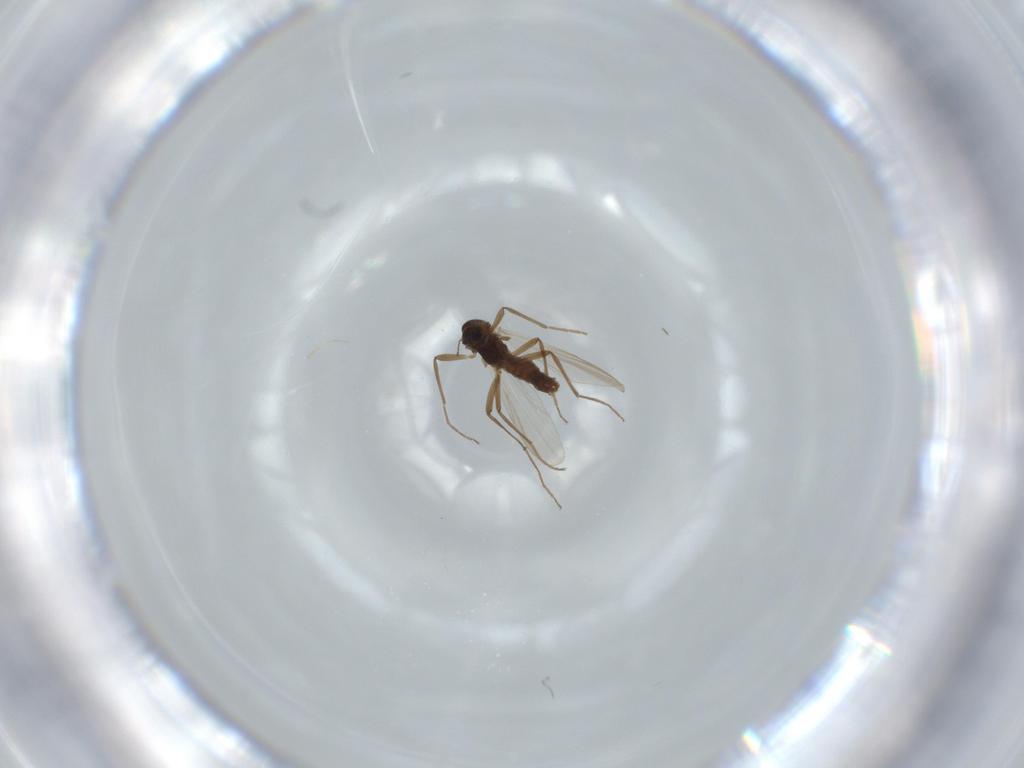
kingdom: Animalia
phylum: Arthropoda
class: Insecta
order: Diptera
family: Chironomidae
